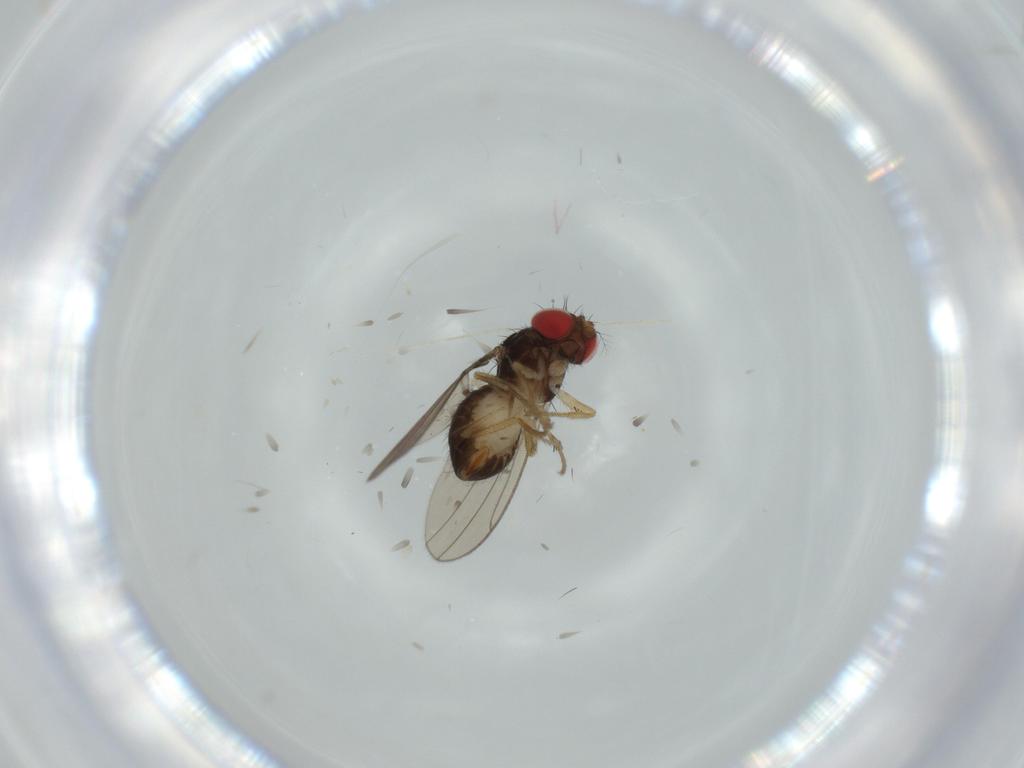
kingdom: Animalia
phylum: Arthropoda
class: Insecta
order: Diptera
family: Drosophilidae
